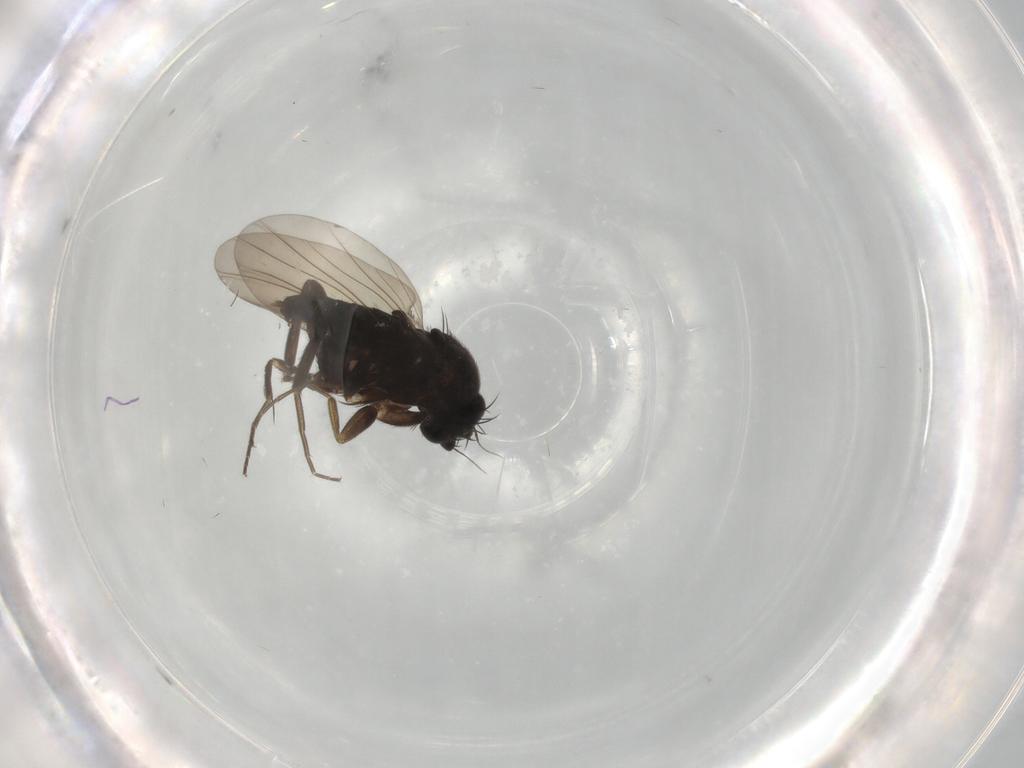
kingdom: Animalia
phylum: Arthropoda
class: Insecta
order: Diptera
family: Phoridae
